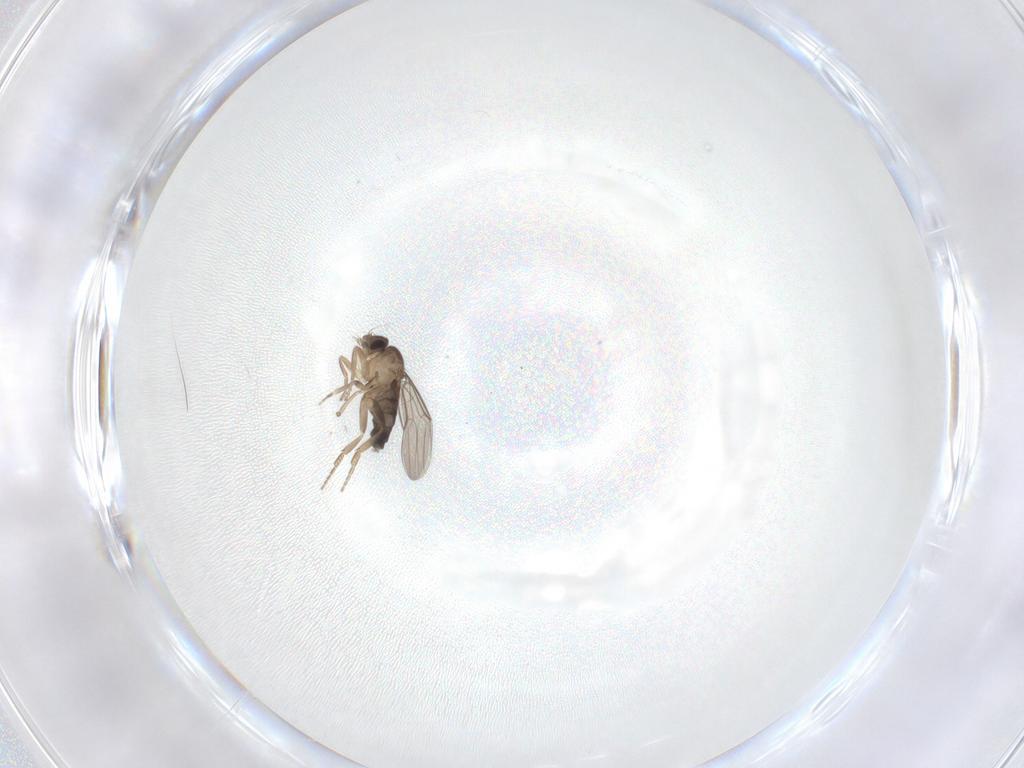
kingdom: Animalia
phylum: Arthropoda
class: Insecta
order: Diptera
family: Phoridae
